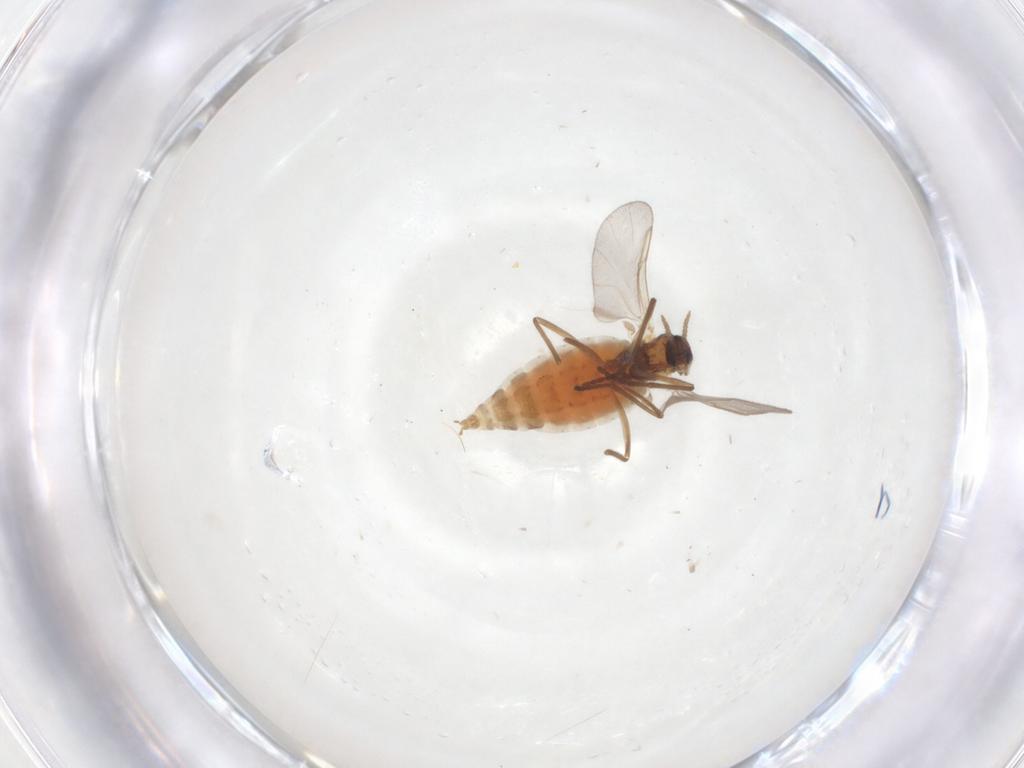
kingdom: Animalia
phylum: Arthropoda
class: Insecta
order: Diptera
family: Cecidomyiidae
